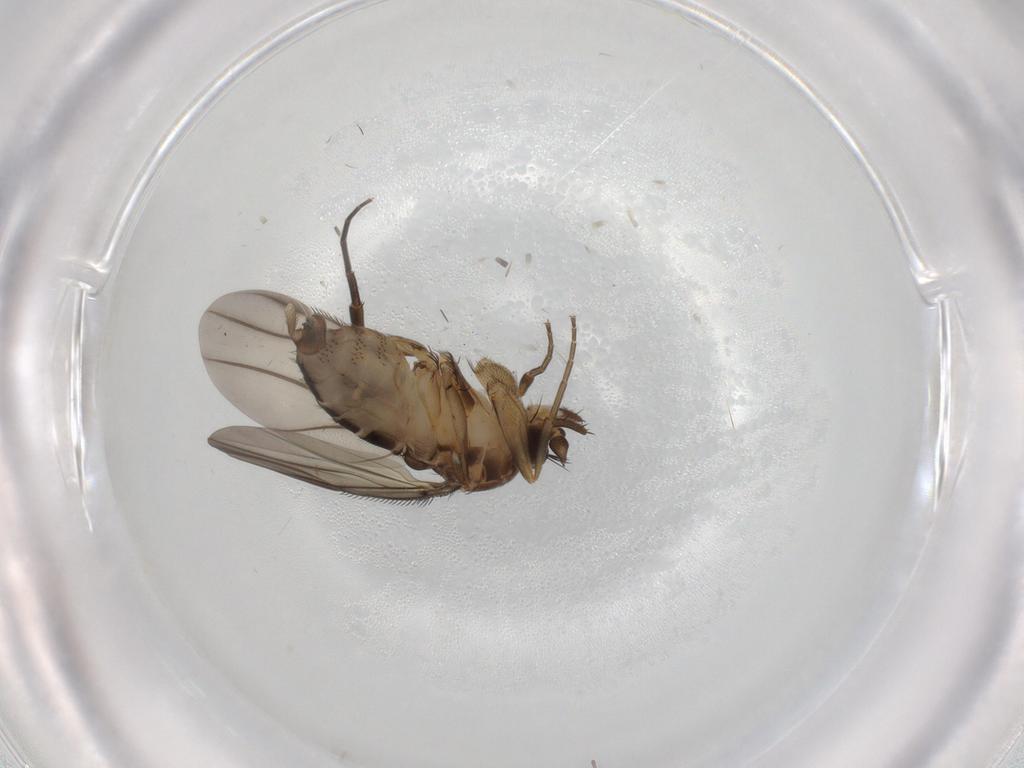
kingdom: Animalia
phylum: Arthropoda
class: Insecta
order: Diptera
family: Phoridae
